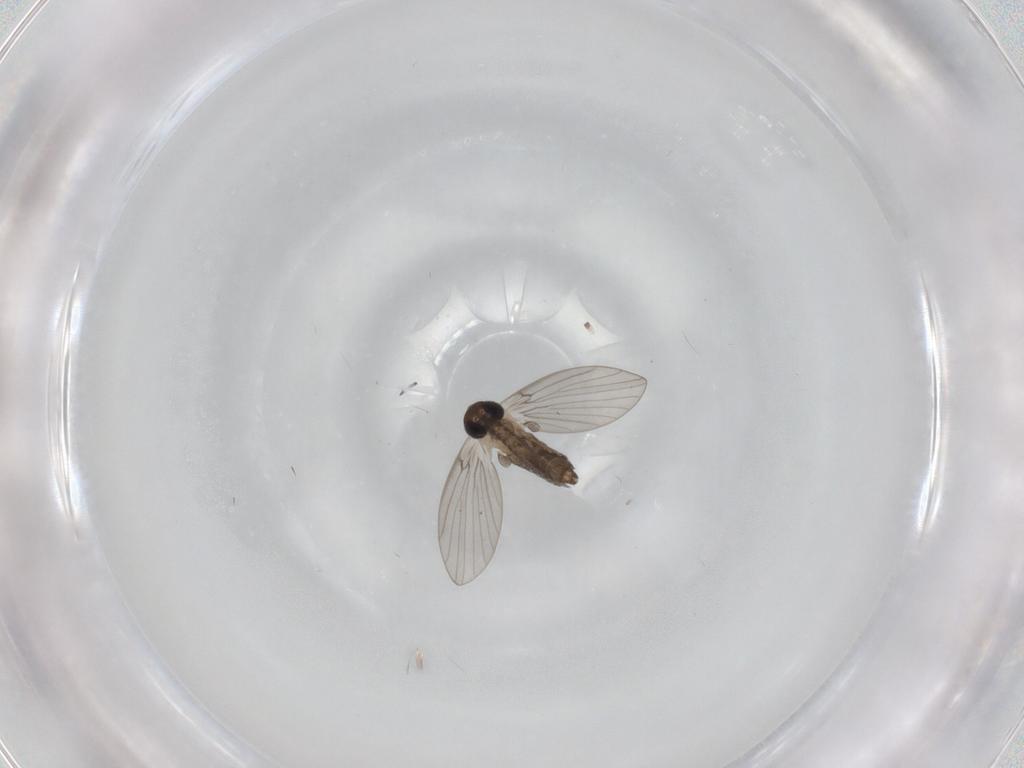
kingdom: Animalia
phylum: Arthropoda
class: Insecta
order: Diptera
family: Psychodidae
